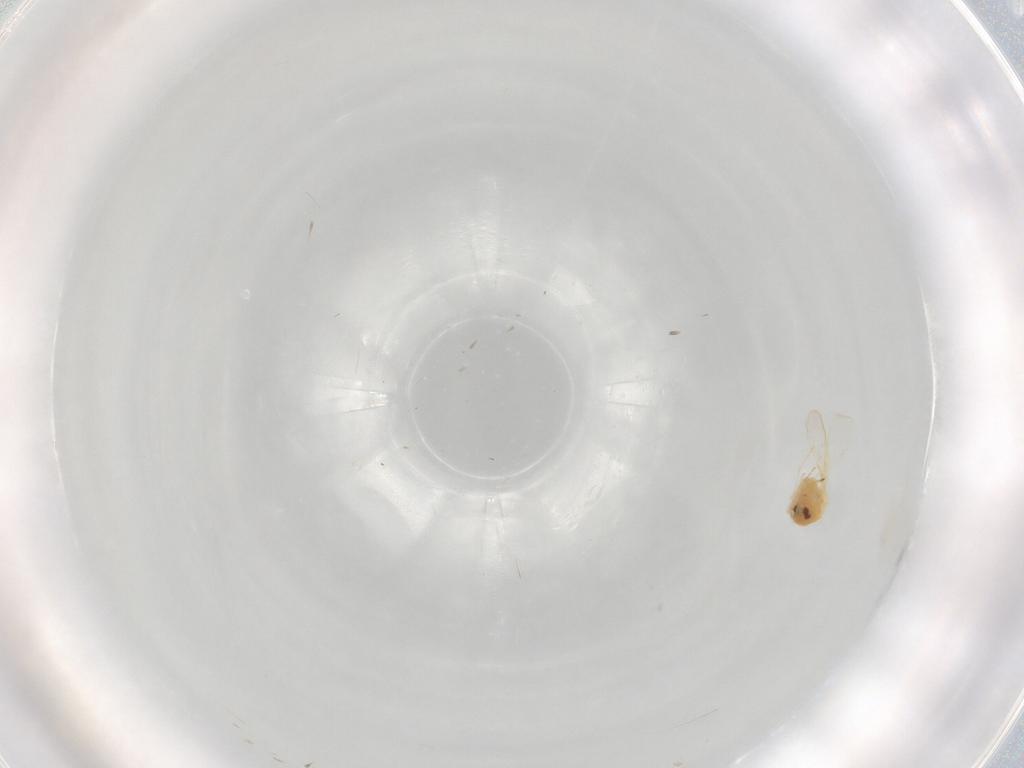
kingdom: Animalia
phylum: Arthropoda
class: Insecta
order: Hemiptera
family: Aleyrodidae
